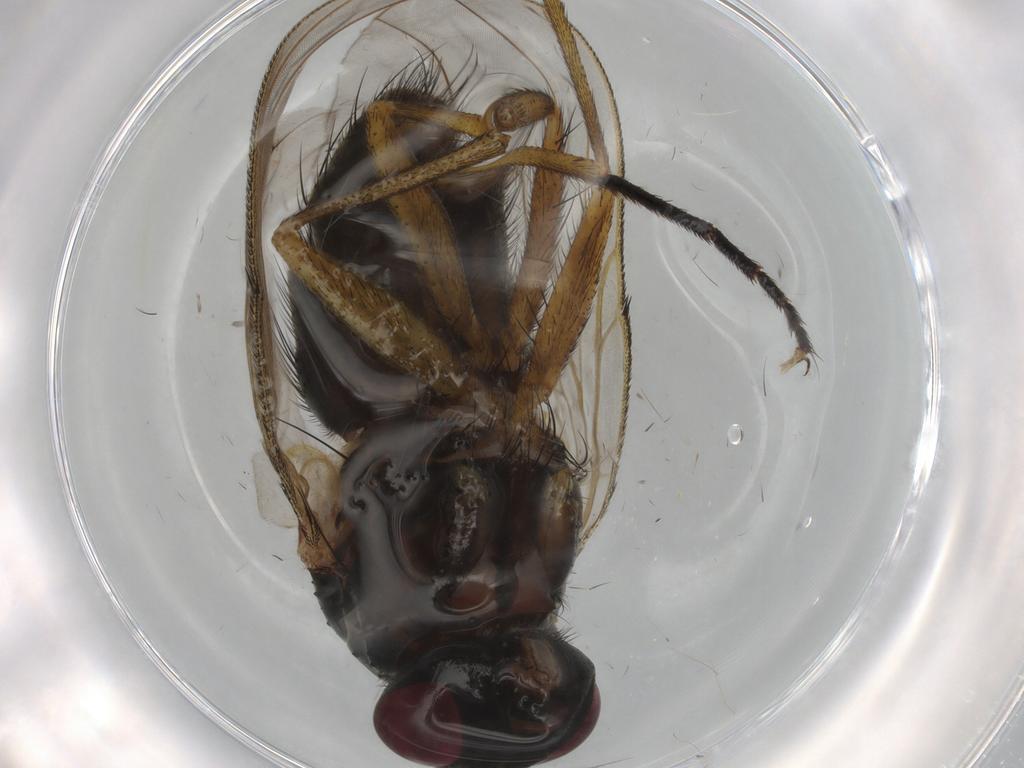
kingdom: Animalia
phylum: Arthropoda
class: Insecta
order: Diptera
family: Muscidae
